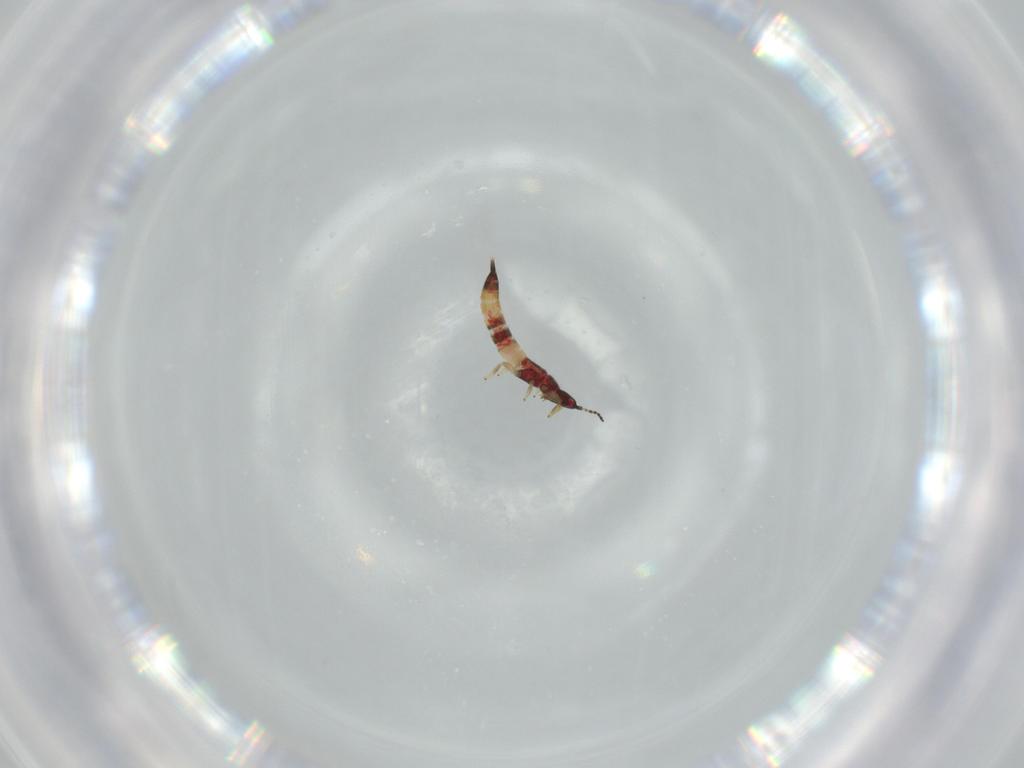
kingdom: Animalia
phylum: Arthropoda
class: Insecta
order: Thysanoptera
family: Phlaeothripidae
